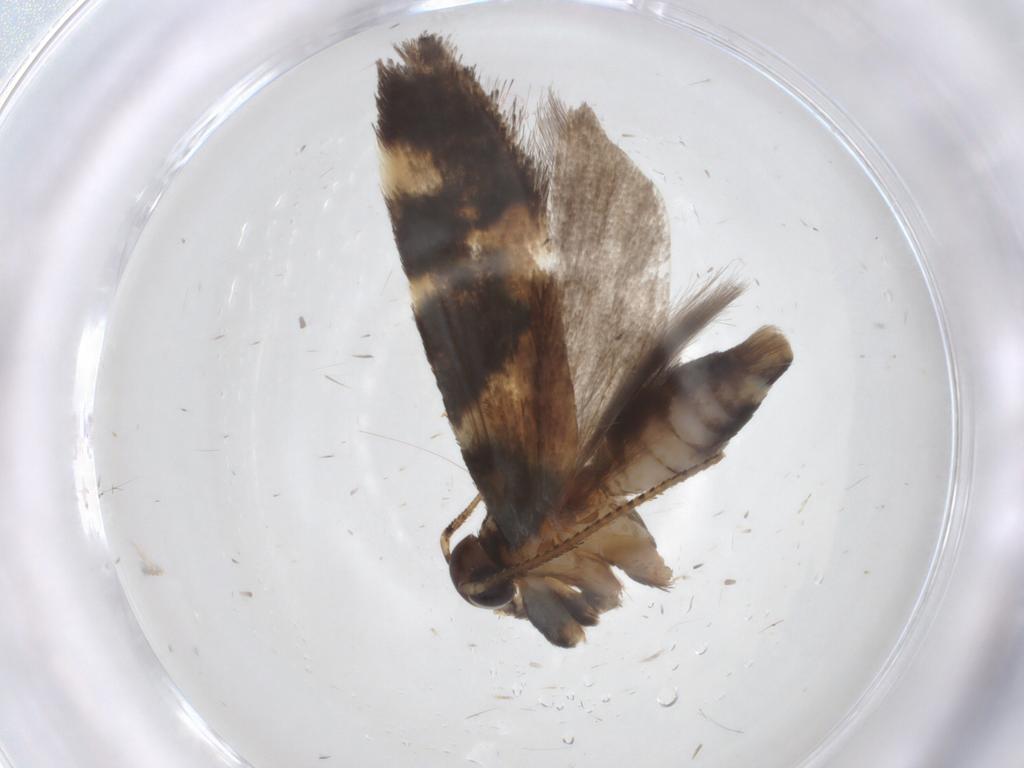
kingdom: Animalia
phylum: Arthropoda
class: Insecta
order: Lepidoptera
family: Gelechiidae
